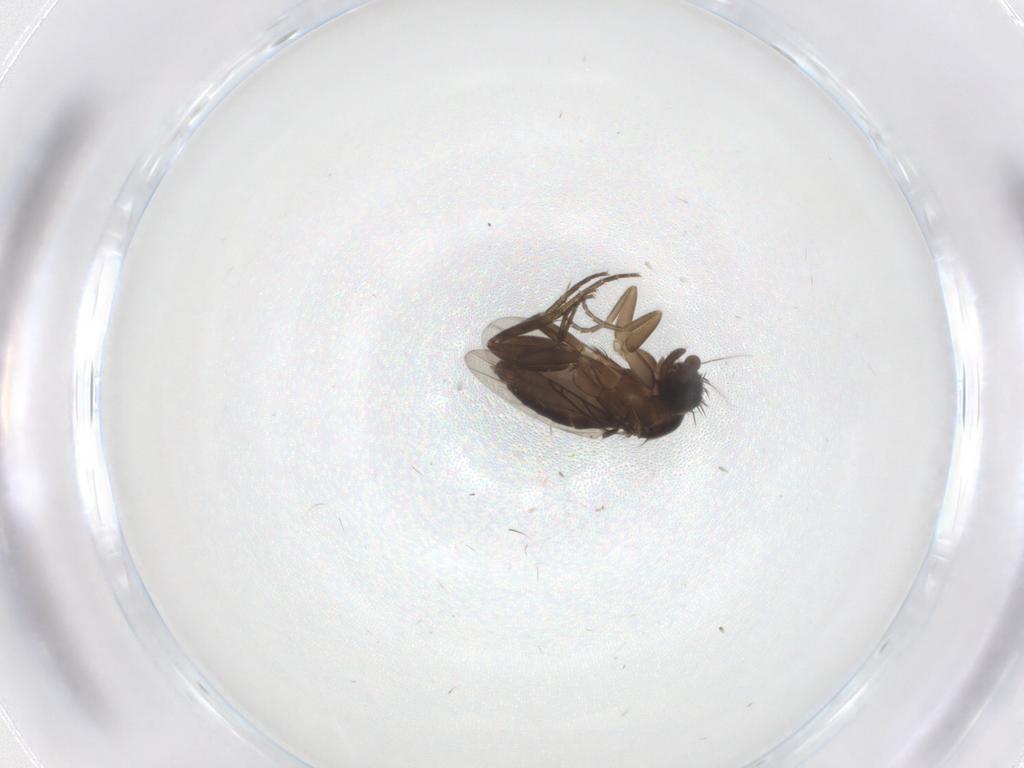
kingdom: Animalia
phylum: Arthropoda
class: Insecta
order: Diptera
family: Phoridae
